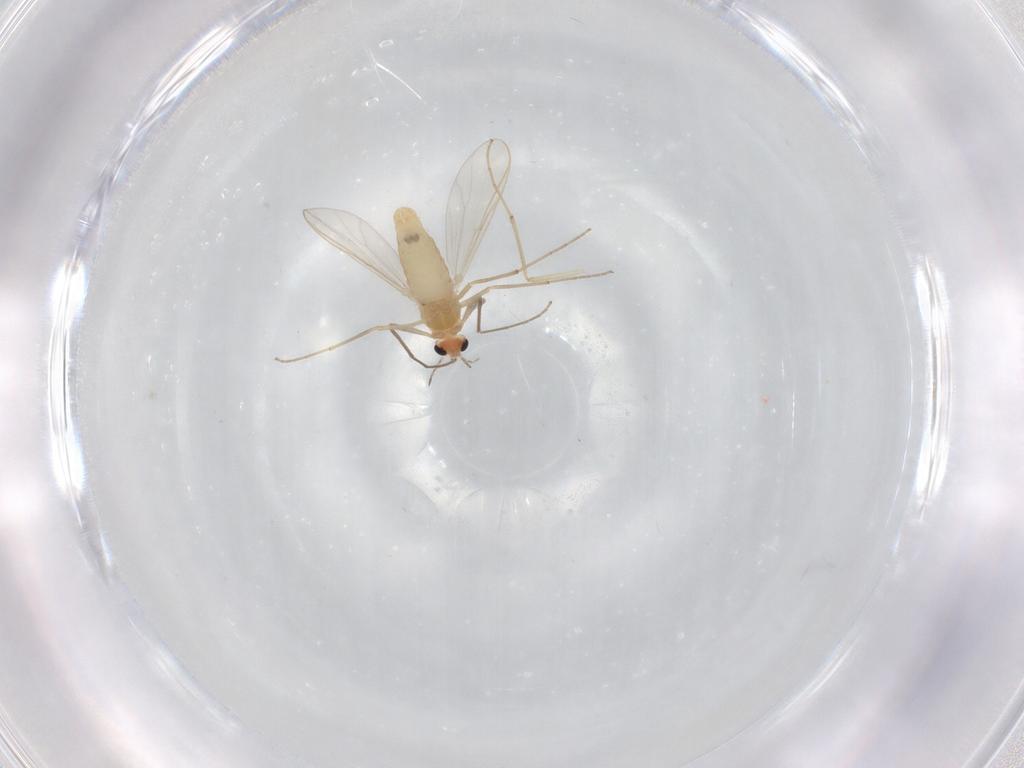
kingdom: Animalia
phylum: Arthropoda
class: Insecta
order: Diptera
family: Chironomidae
